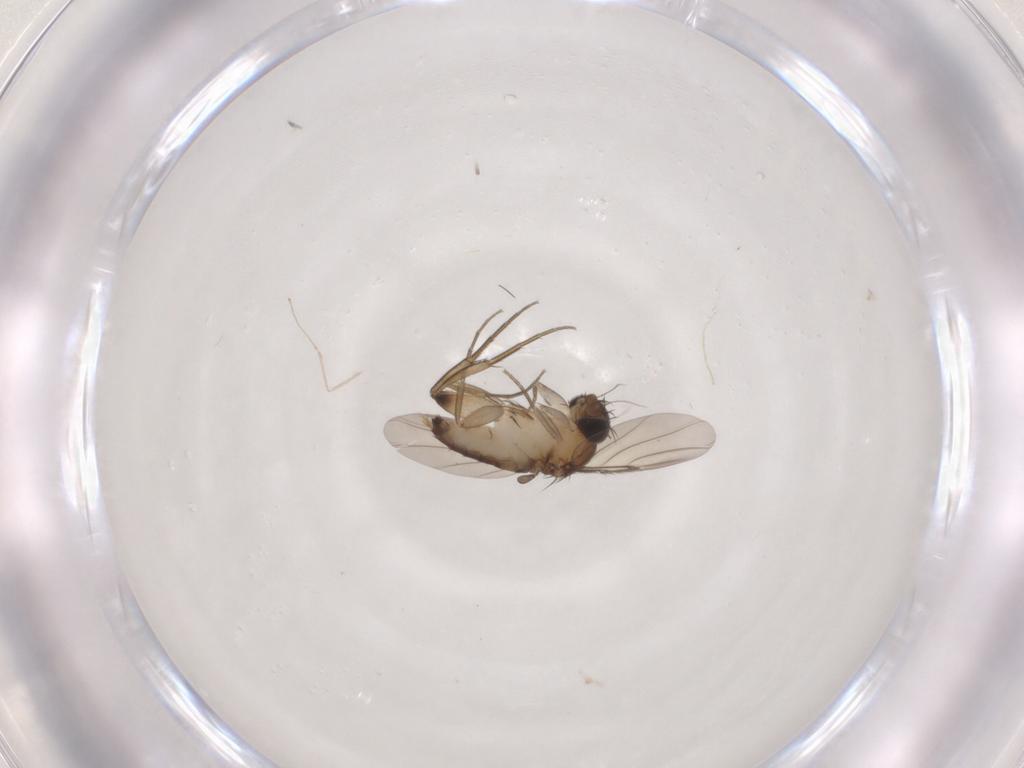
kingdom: Animalia
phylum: Arthropoda
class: Insecta
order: Diptera
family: Phoridae
